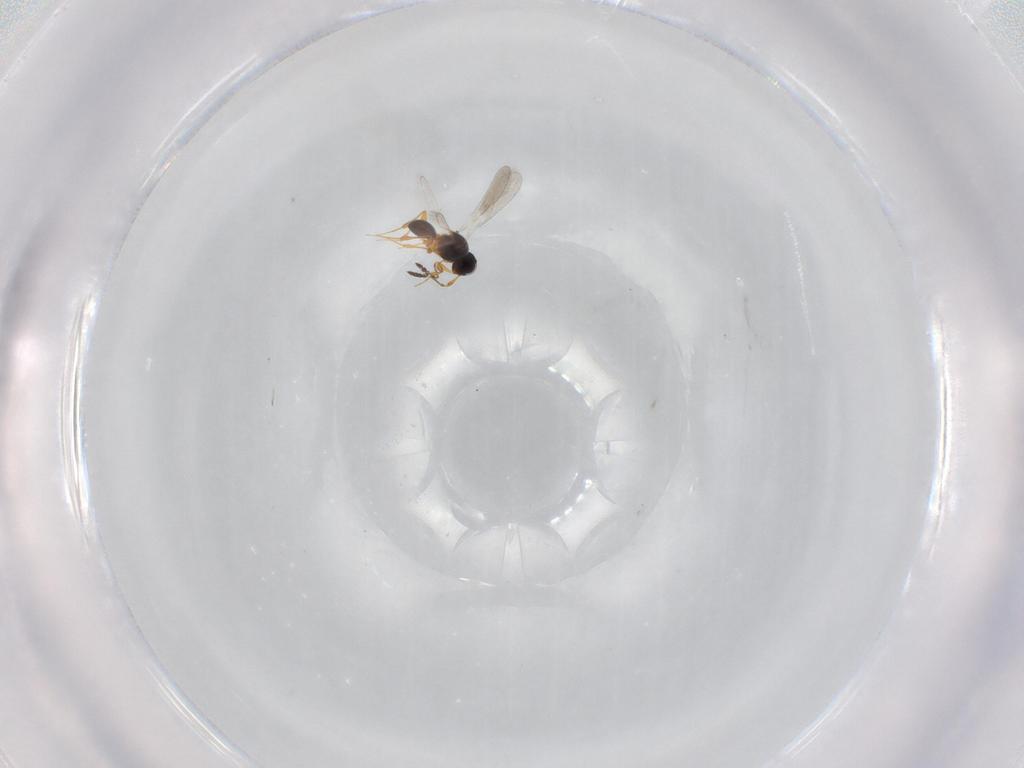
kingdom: Animalia
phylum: Arthropoda
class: Insecta
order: Hymenoptera
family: Platygastridae
